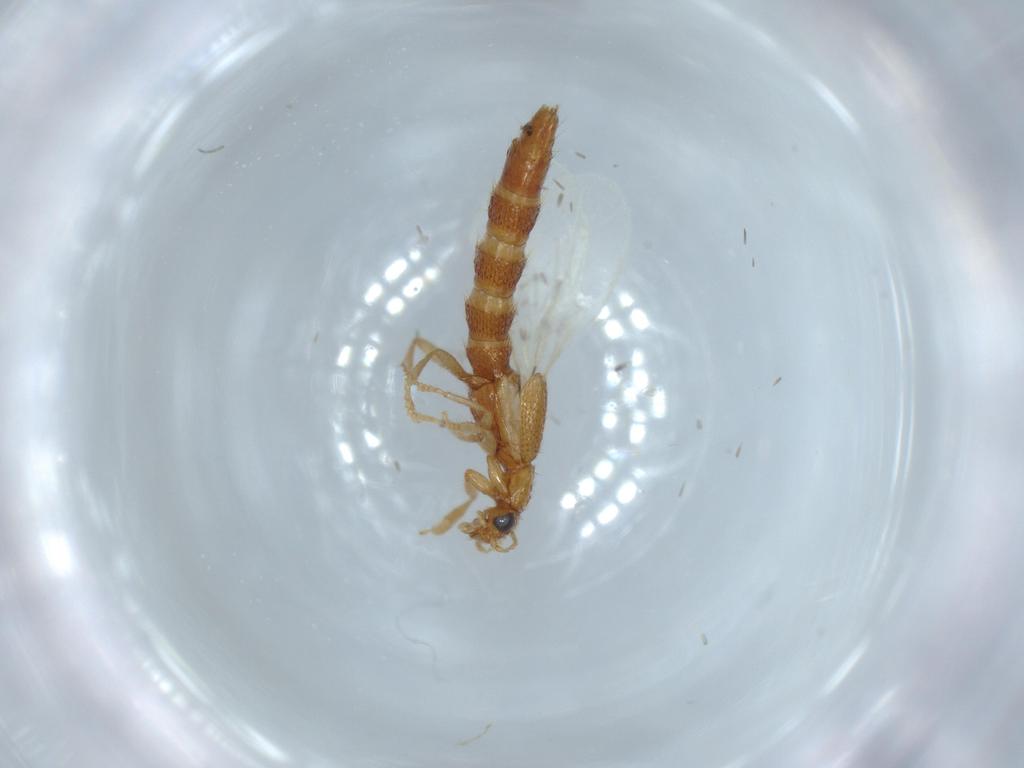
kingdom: Animalia
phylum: Arthropoda
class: Insecta
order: Coleoptera
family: Staphylinidae
